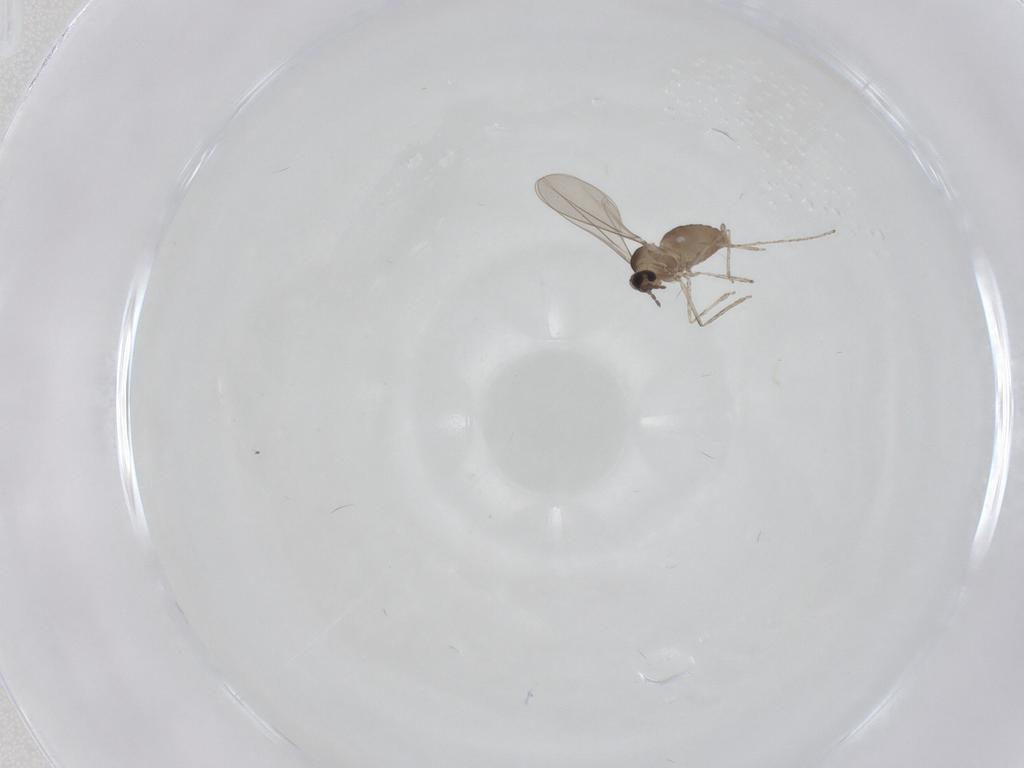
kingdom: Animalia
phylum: Arthropoda
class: Insecta
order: Diptera
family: Cecidomyiidae
